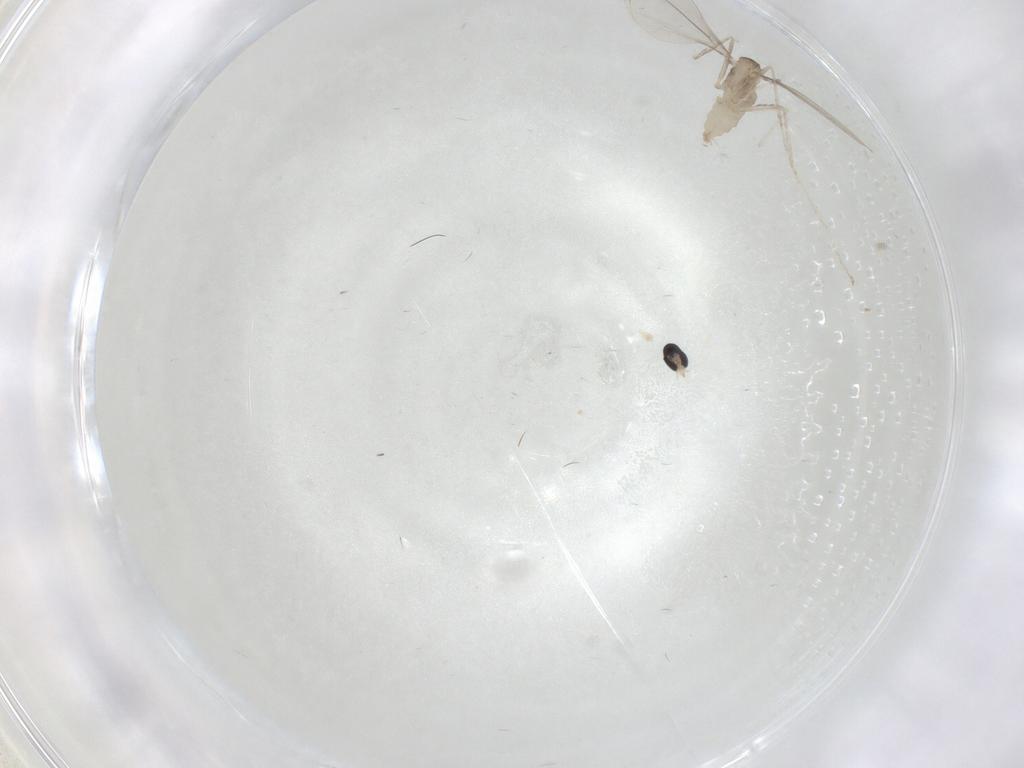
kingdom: Animalia
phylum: Arthropoda
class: Insecta
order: Diptera
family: Cecidomyiidae
